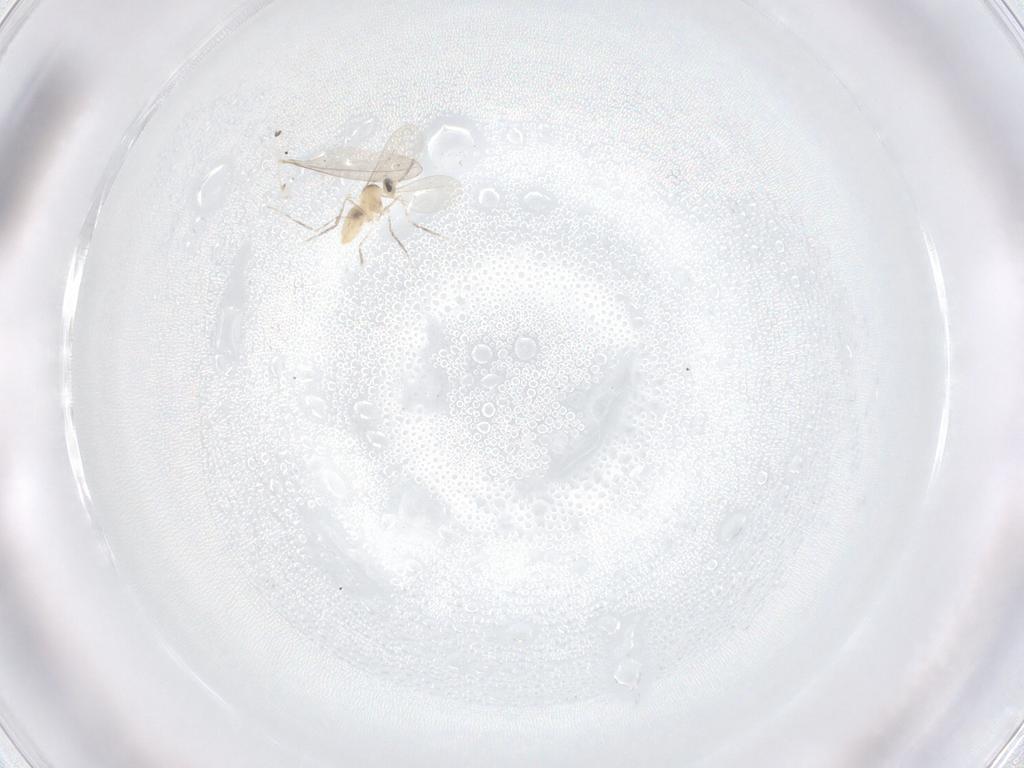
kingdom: Animalia
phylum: Arthropoda
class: Insecta
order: Diptera
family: Cecidomyiidae
